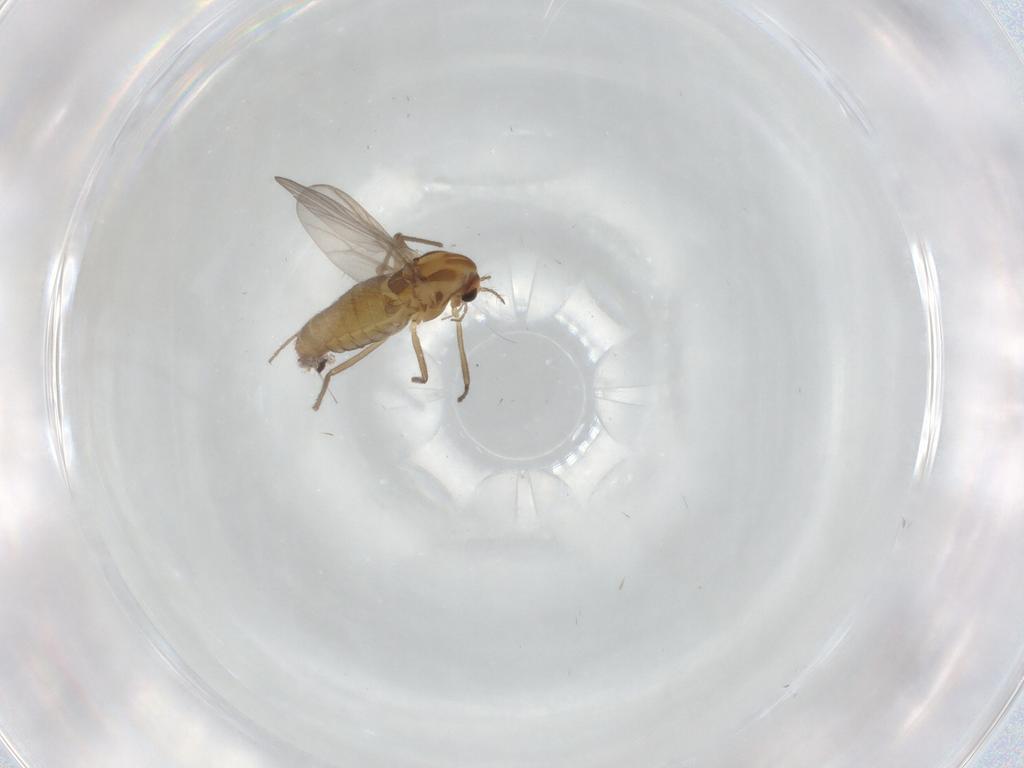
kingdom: Animalia
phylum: Arthropoda
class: Insecta
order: Diptera
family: Chironomidae
